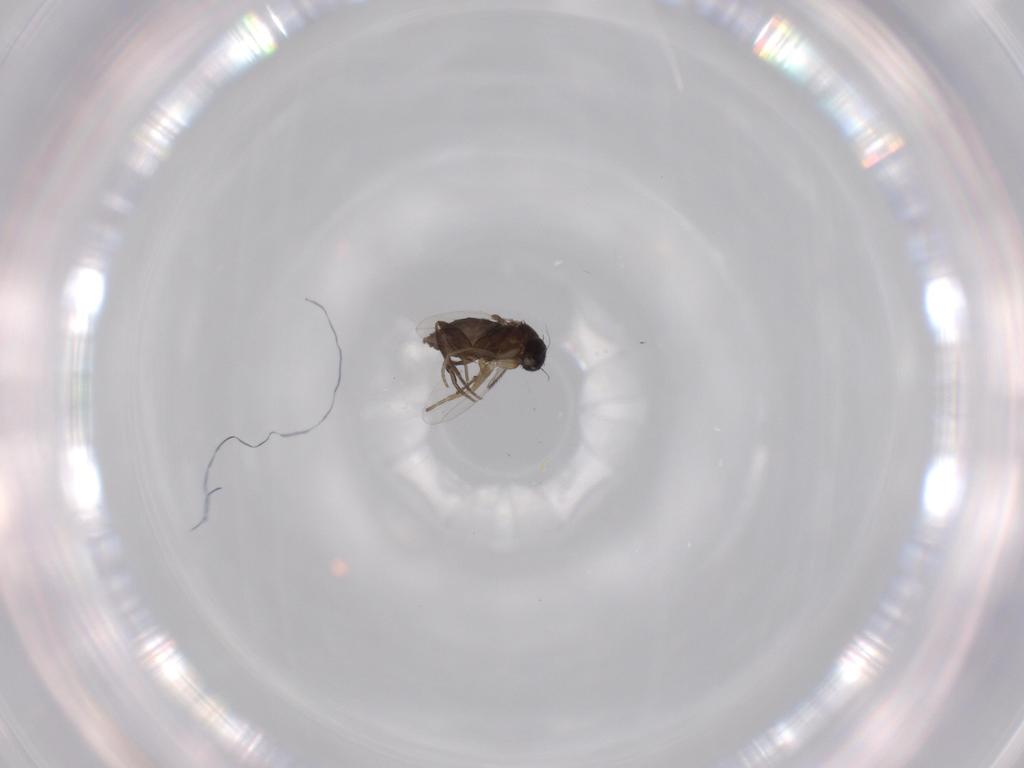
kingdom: Animalia
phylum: Arthropoda
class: Insecta
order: Diptera
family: Phoridae
